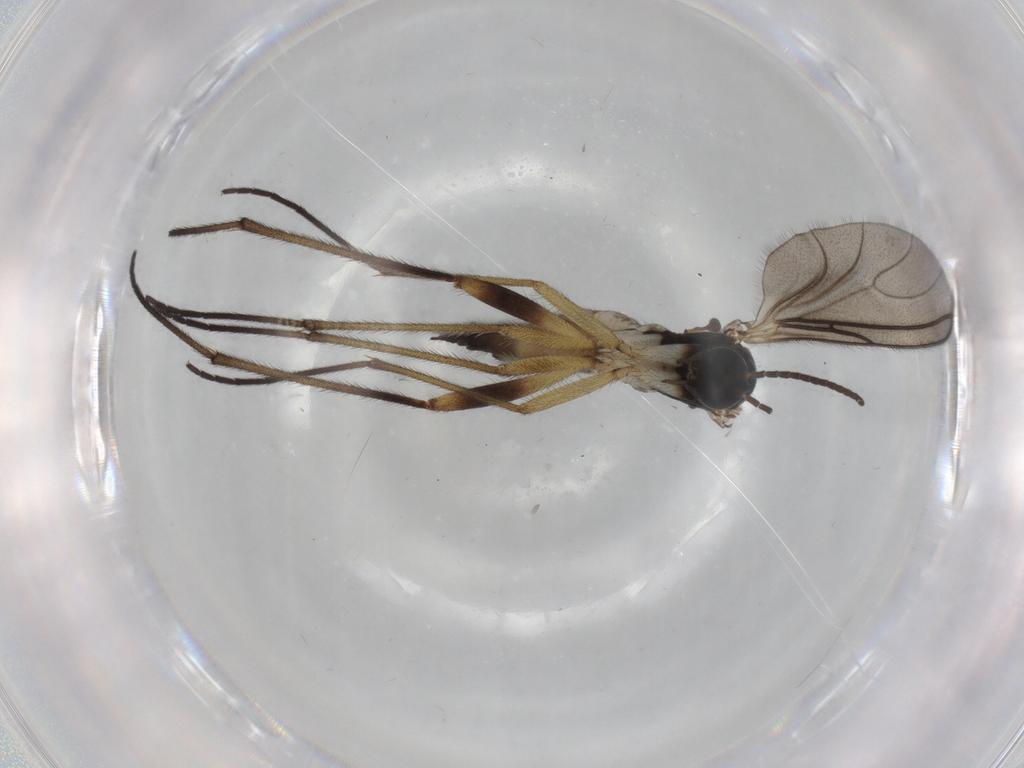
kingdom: Animalia
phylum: Arthropoda
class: Insecta
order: Diptera
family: Sciaridae
